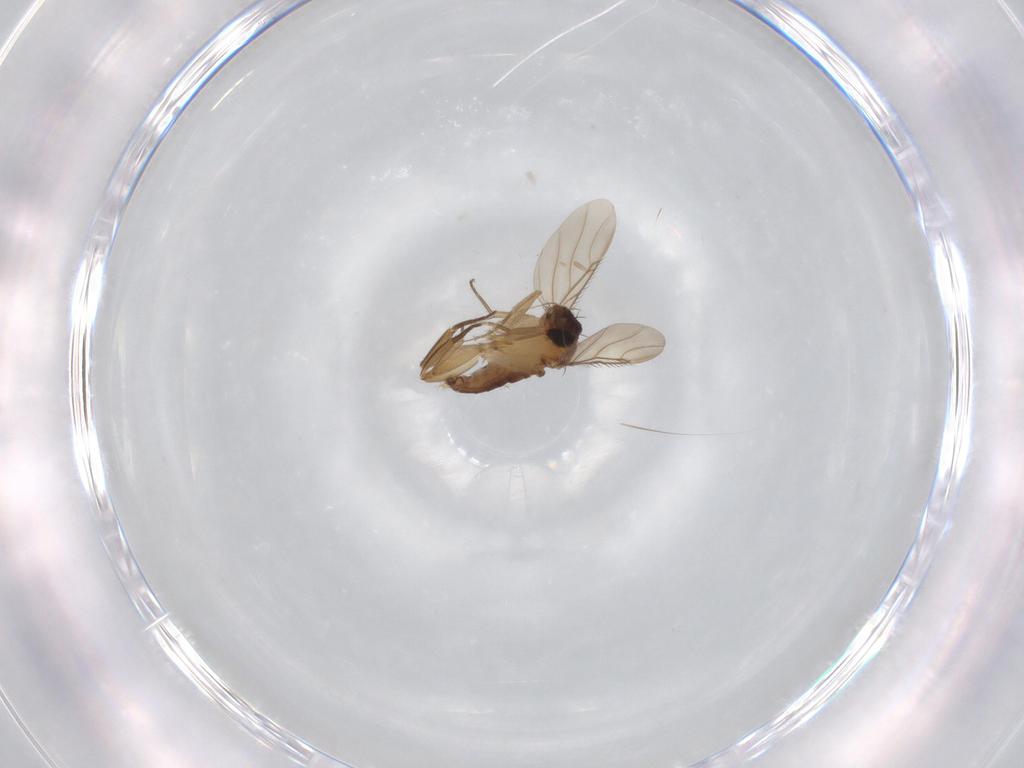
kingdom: Animalia
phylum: Arthropoda
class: Insecta
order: Diptera
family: Phoridae
